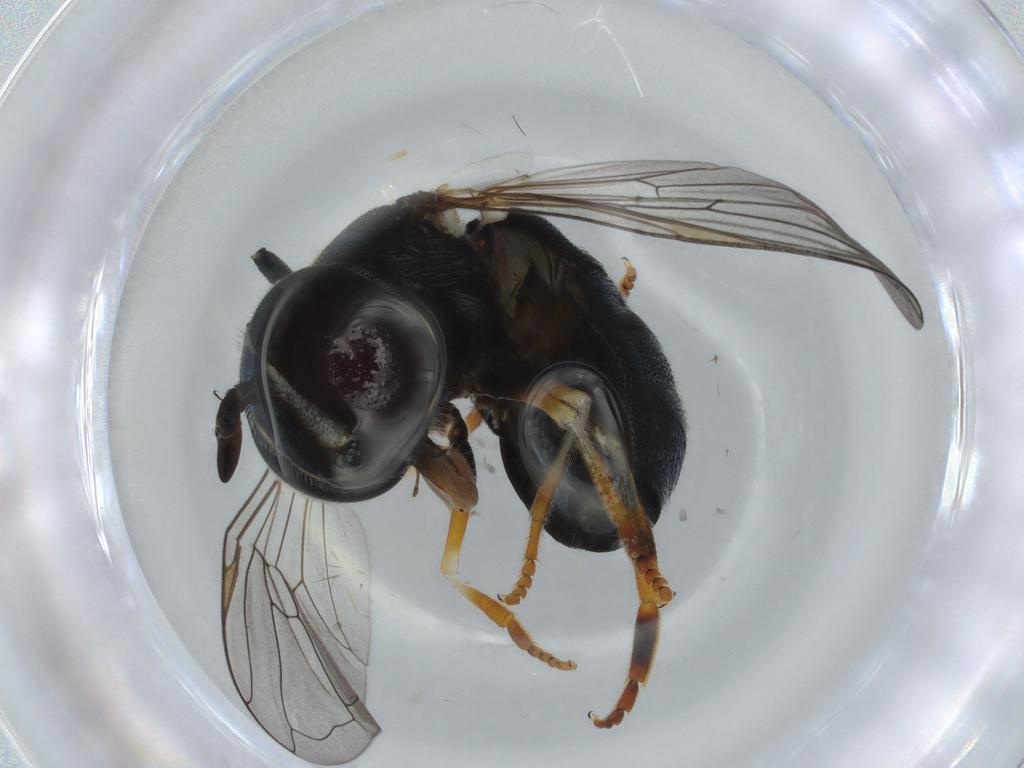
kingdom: Animalia
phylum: Arthropoda
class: Insecta
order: Diptera
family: Syrphidae
